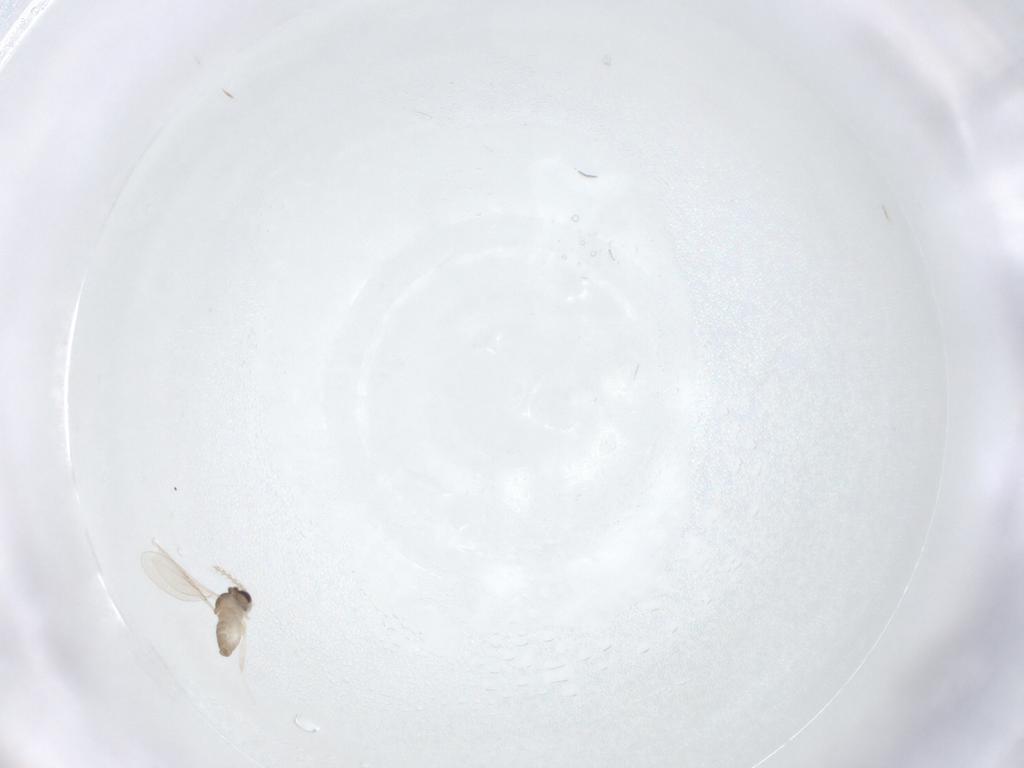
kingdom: Animalia
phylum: Arthropoda
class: Insecta
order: Diptera
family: Cecidomyiidae
